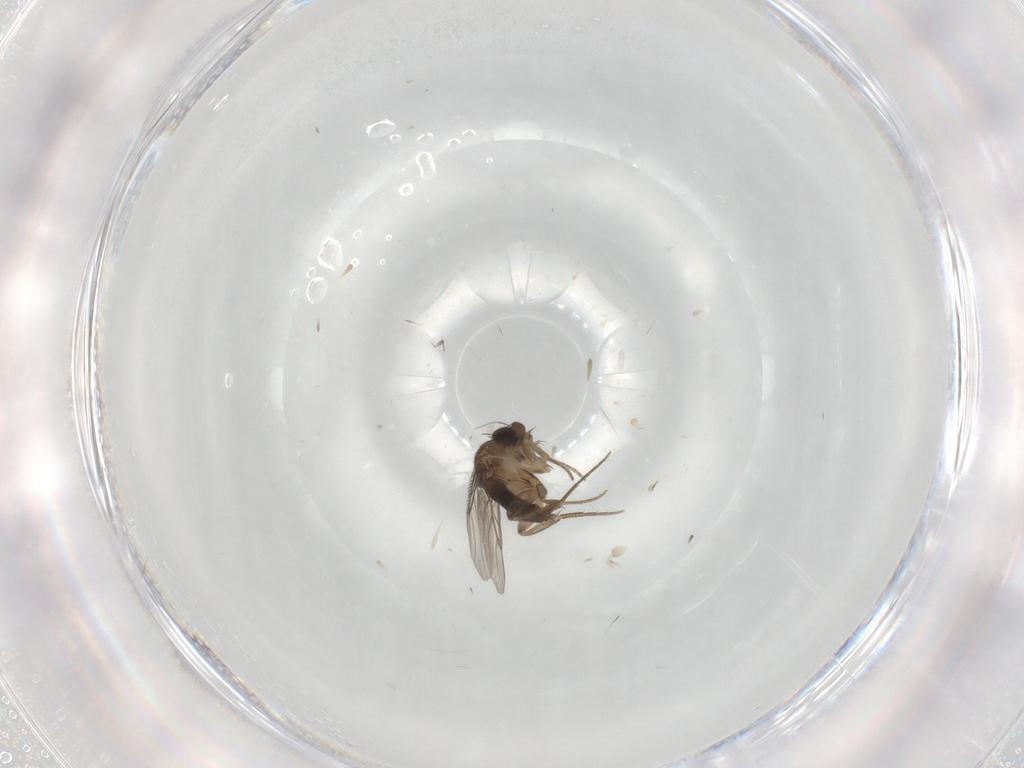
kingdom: Animalia
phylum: Arthropoda
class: Insecta
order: Diptera
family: Phoridae
